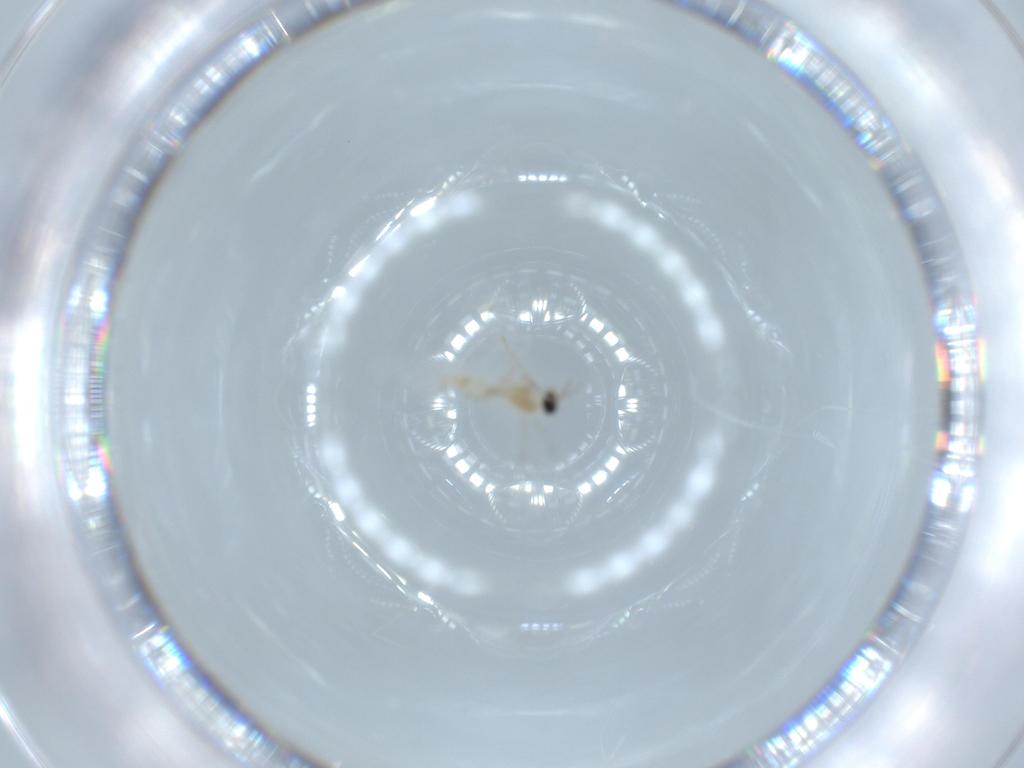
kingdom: Animalia
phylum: Arthropoda
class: Insecta
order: Diptera
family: Cecidomyiidae
